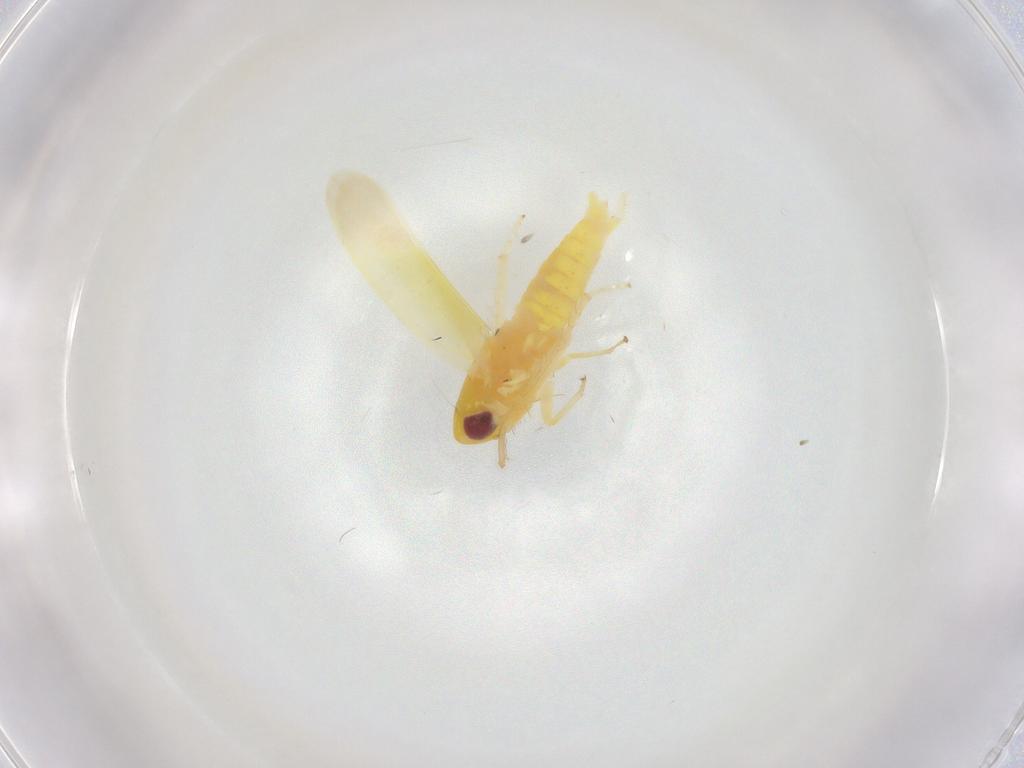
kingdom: Animalia
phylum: Arthropoda
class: Insecta
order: Hemiptera
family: Cicadellidae
